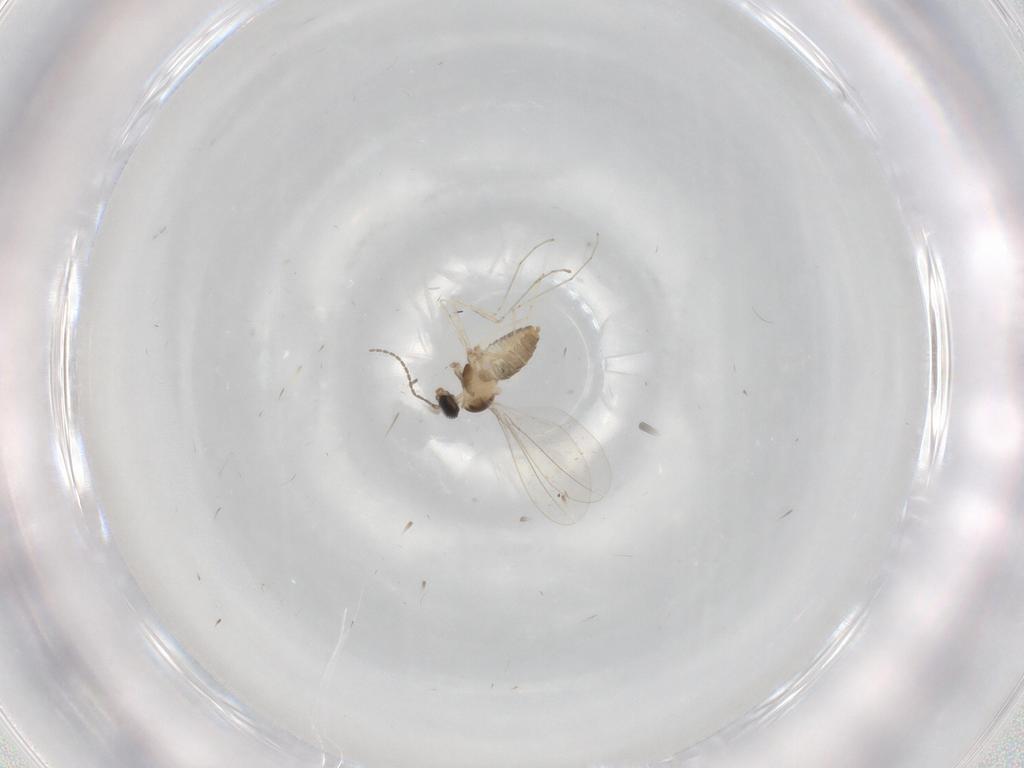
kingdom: Animalia
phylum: Arthropoda
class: Insecta
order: Diptera
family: Cecidomyiidae
